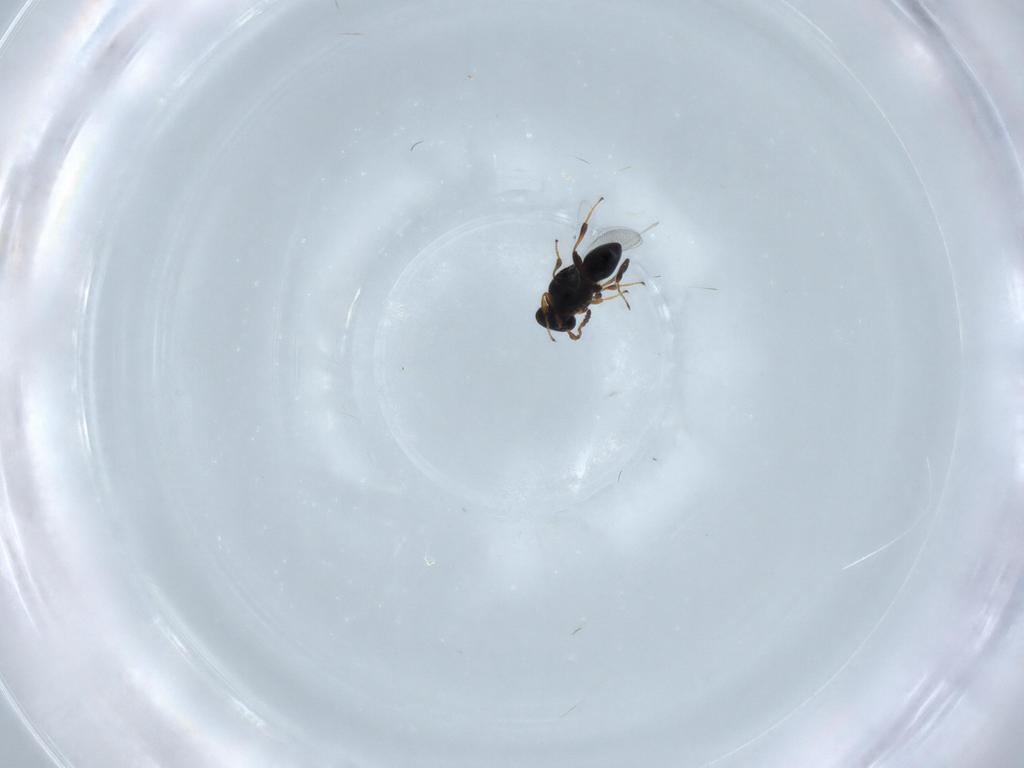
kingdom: Animalia
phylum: Arthropoda
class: Insecta
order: Hymenoptera
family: Platygastridae
